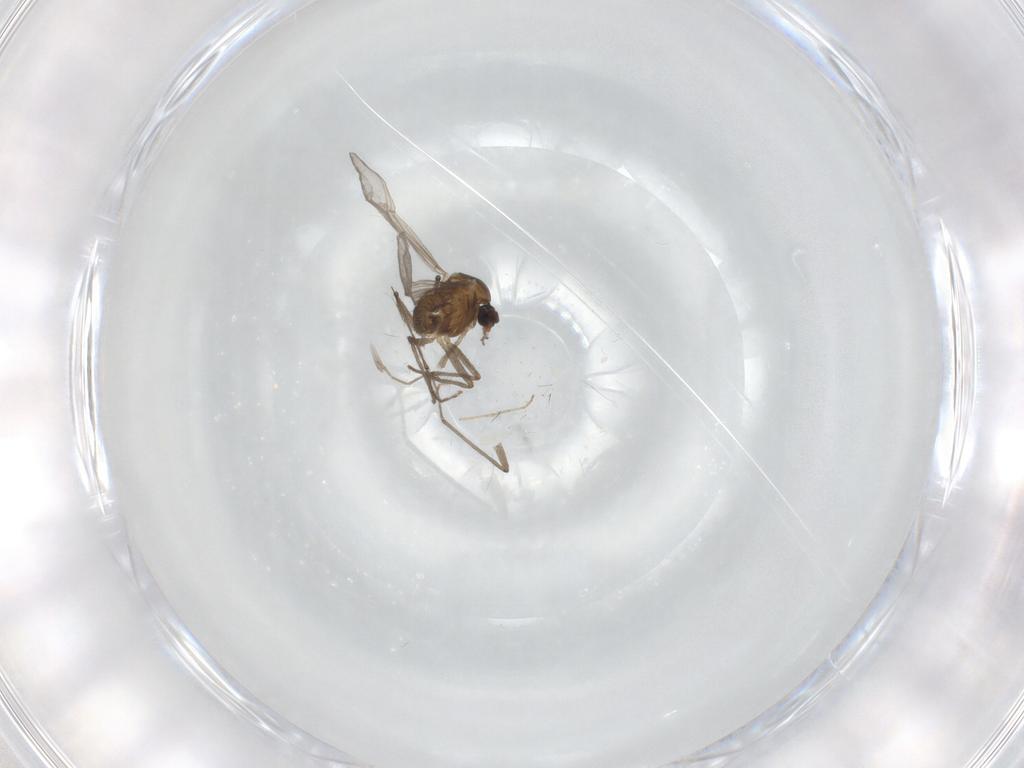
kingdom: Animalia
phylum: Arthropoda
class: Insecta
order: Diptera
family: Chironomidae
